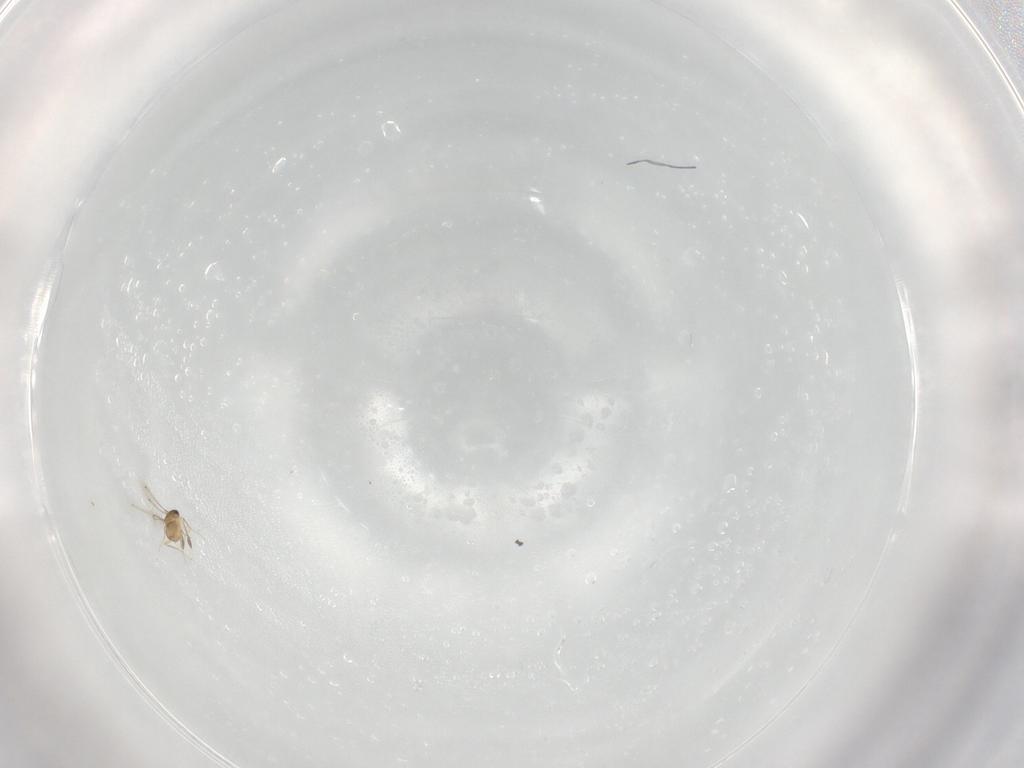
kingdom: Animalia
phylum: Arthropoda
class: Insecta
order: Hymenoptera
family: Mymaridae
